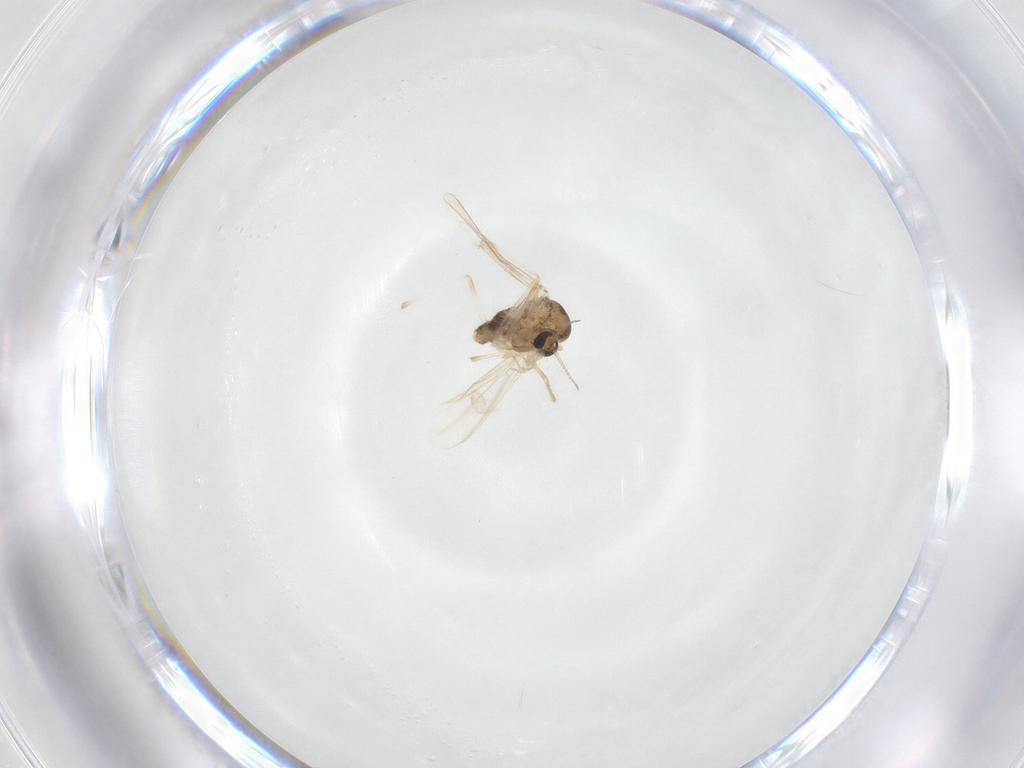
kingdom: Animalia
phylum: Arthropoda
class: Insecta
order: Diptera
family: Chironomidae
